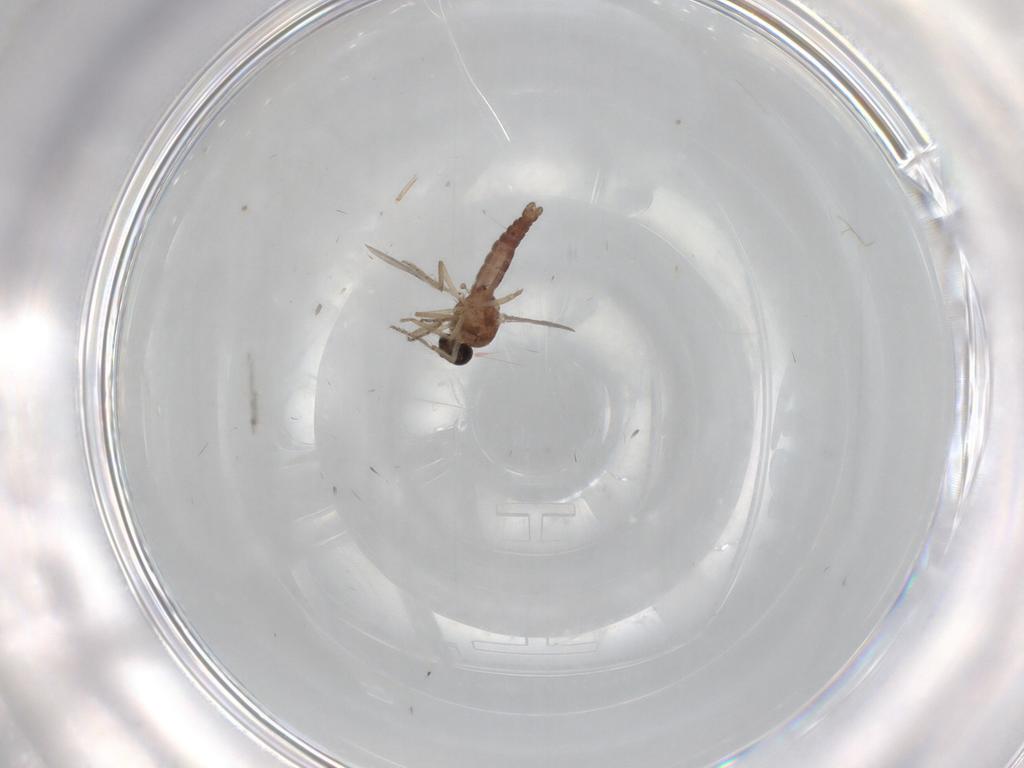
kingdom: Animalia
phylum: Arthropoda
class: Insecta
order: Diptera
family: Ceratopogonidae
